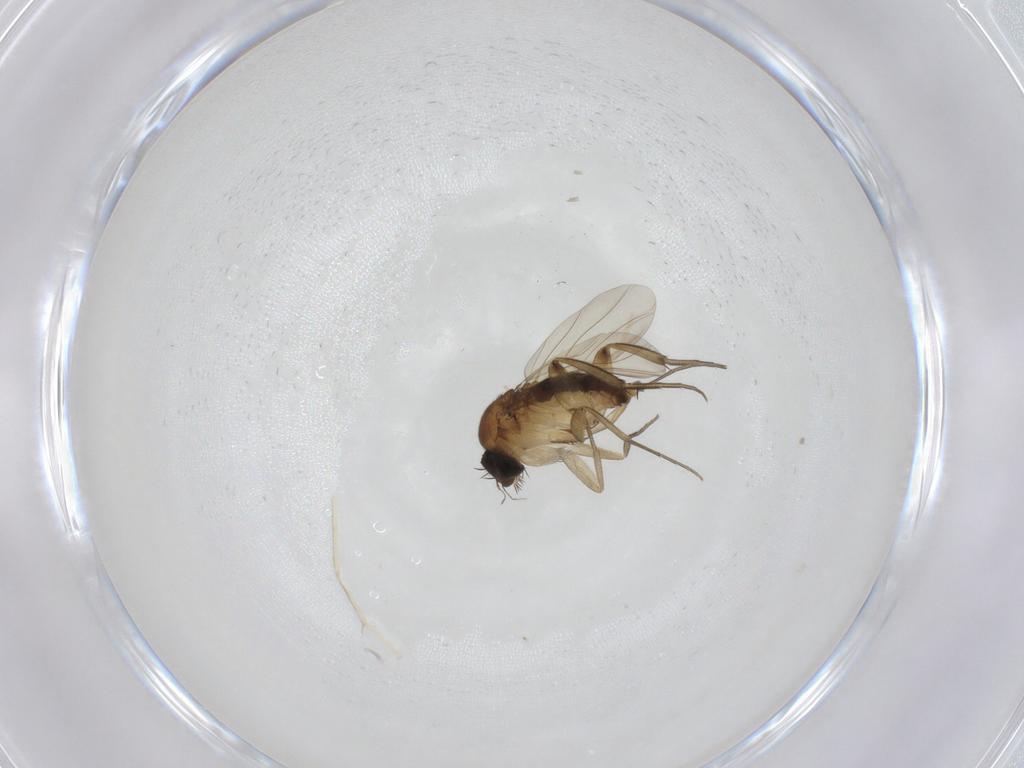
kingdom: Animalia
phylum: Arthropoda
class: Insecta
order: Diptera
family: Phoridae
